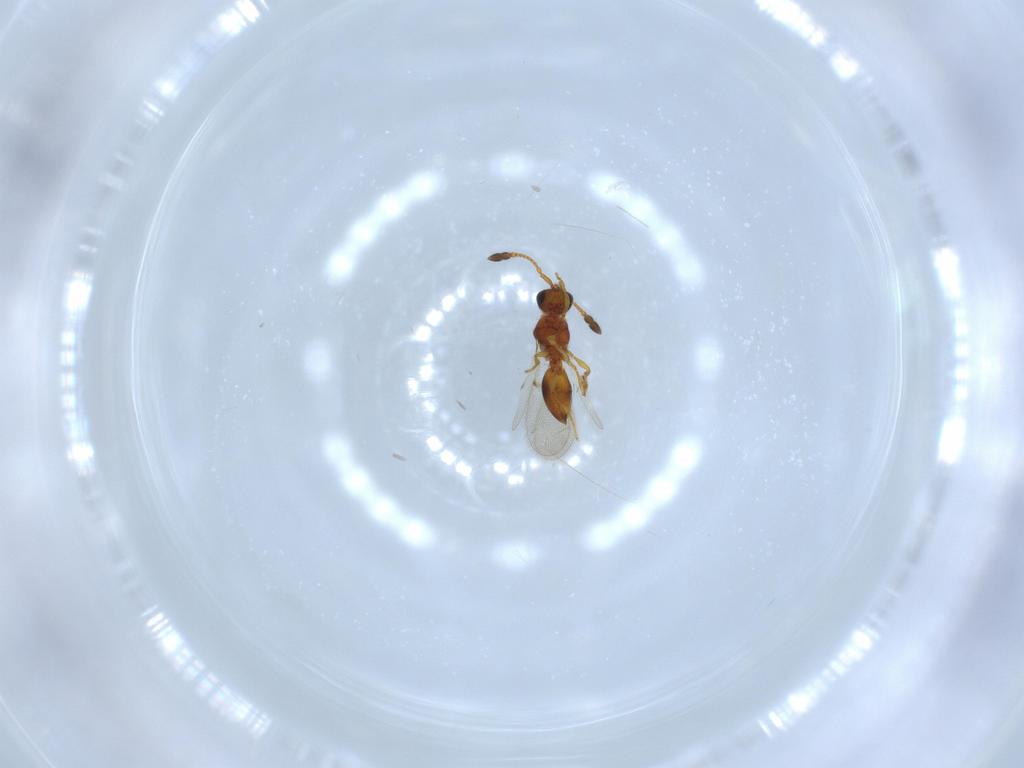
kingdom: Animalia
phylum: Arthropoda
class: Insecta
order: Hymenoptera
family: Diapriidae
